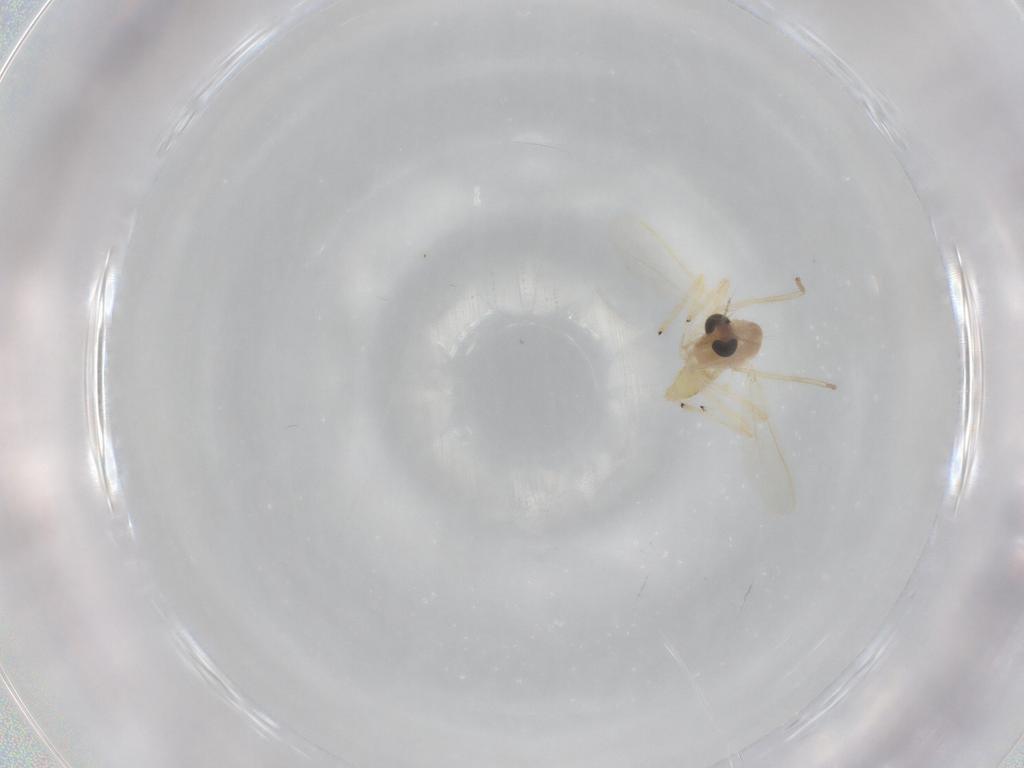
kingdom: Animalia
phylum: Arthropoda
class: Insecta
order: Diptera
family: Chironomidae
